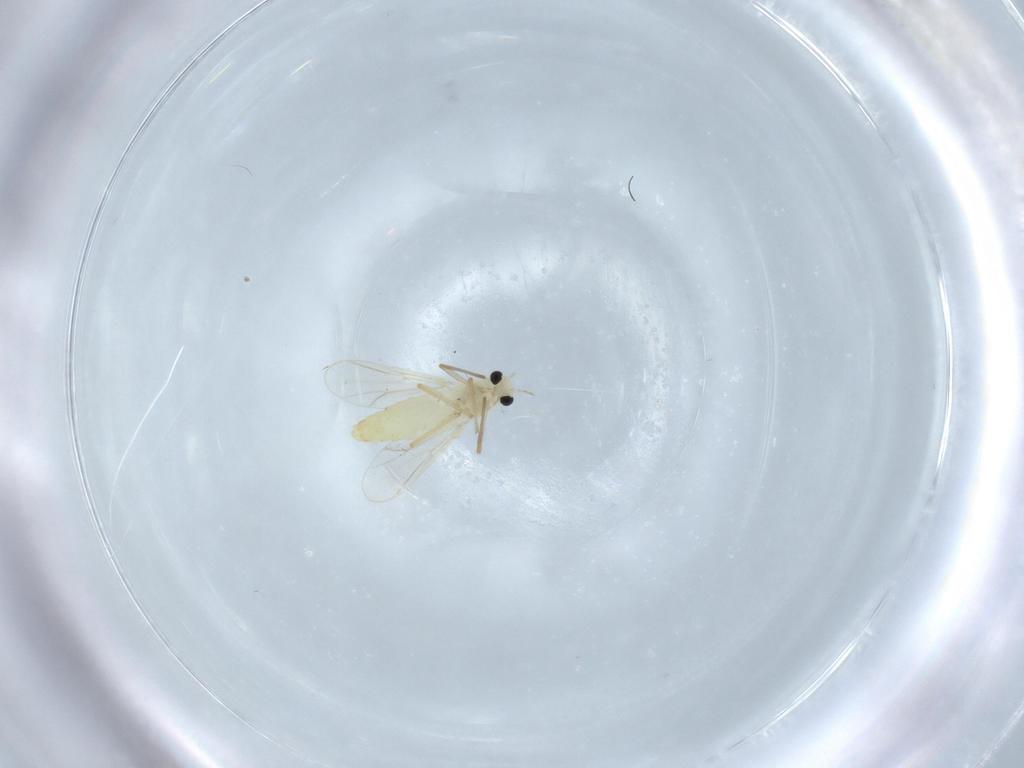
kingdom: Animalia
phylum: Arthropoda
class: Insecta
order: Diptera
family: Chironomidae
